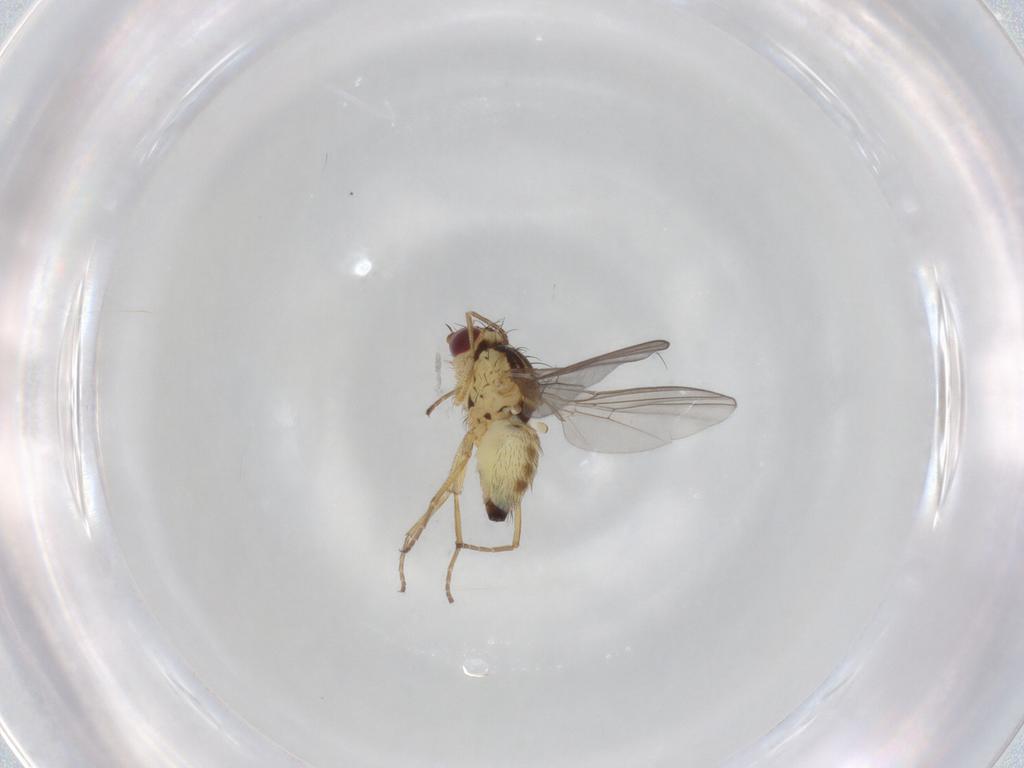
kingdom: Animalia
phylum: Arthropoda
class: Insecta
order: Diptera
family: Agromyzidae
